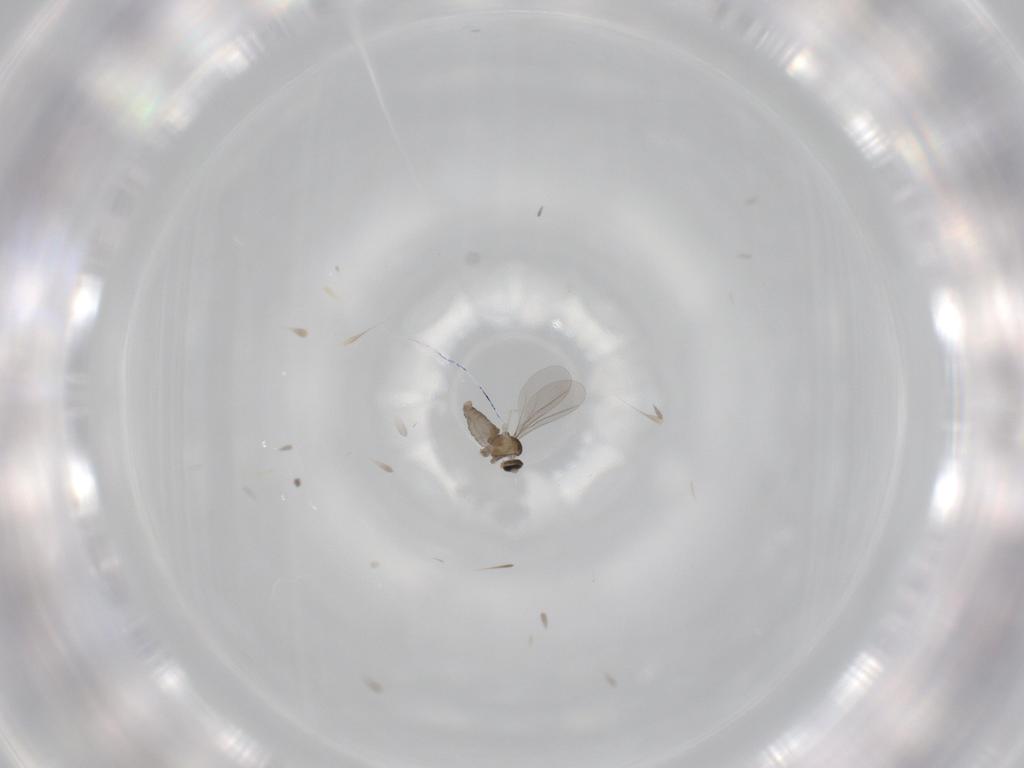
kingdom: Animalia
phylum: Arthropoda
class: Insecta
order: Diptera
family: Cecidomyiidae
